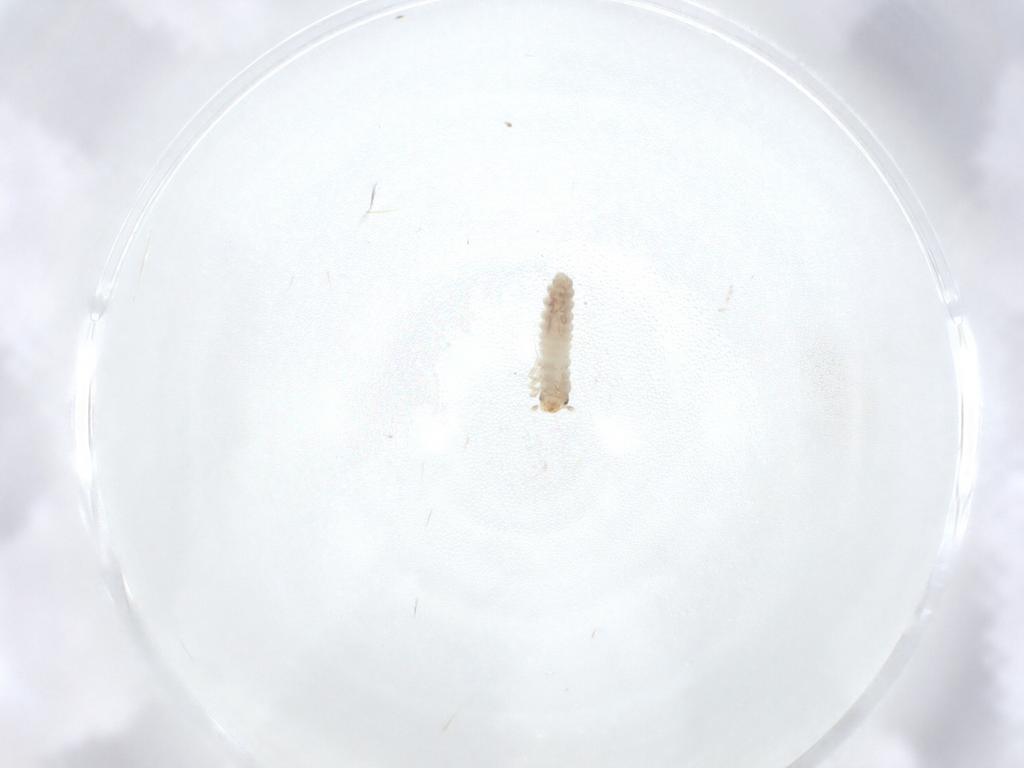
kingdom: Animalia
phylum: Arthropoda
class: Insecta
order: Coleoptera
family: Silvanidae
